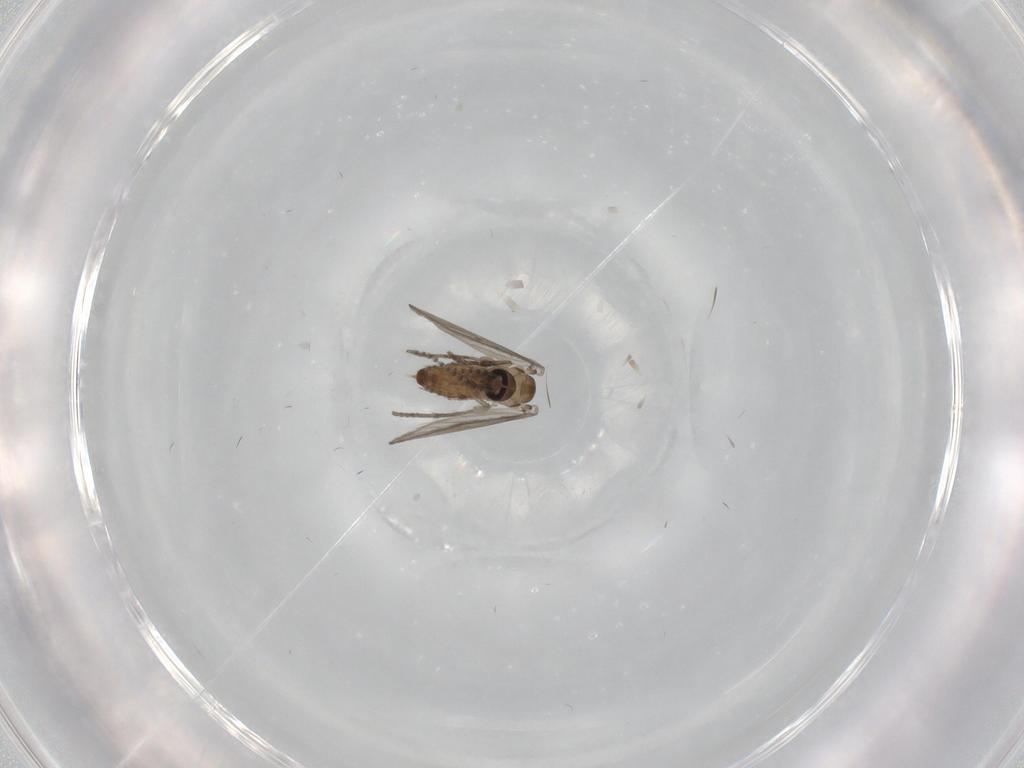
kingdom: Animalia
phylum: Arthropoda
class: Insecta
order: Diptera
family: Psychodidae
